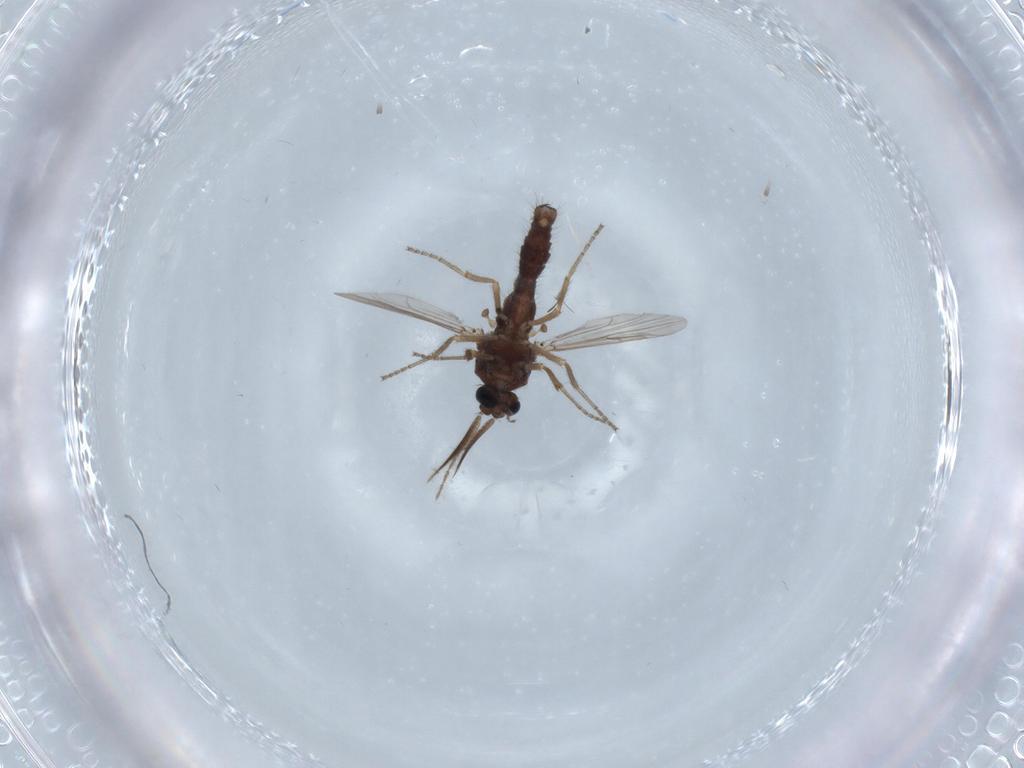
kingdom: Animalia
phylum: Arthropoda
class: Insecta
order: Diptera
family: Ceratopogonidae
